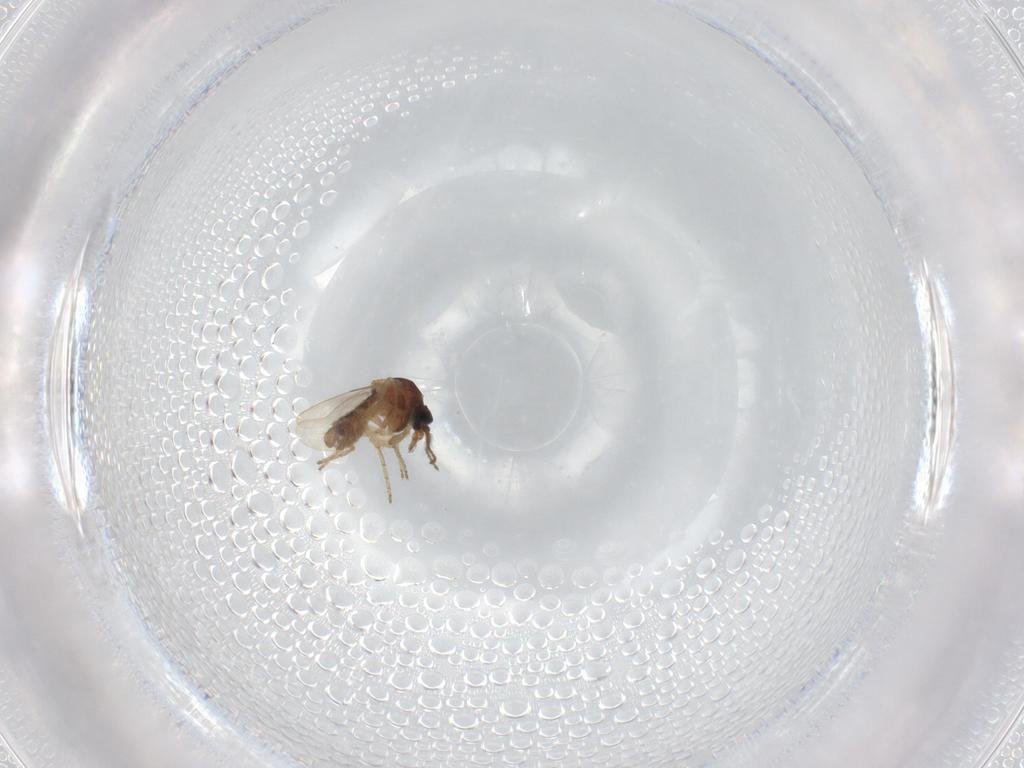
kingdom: Animalia
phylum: Arthropoda
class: Insecta
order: Diptera
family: Ceratopogonidae
